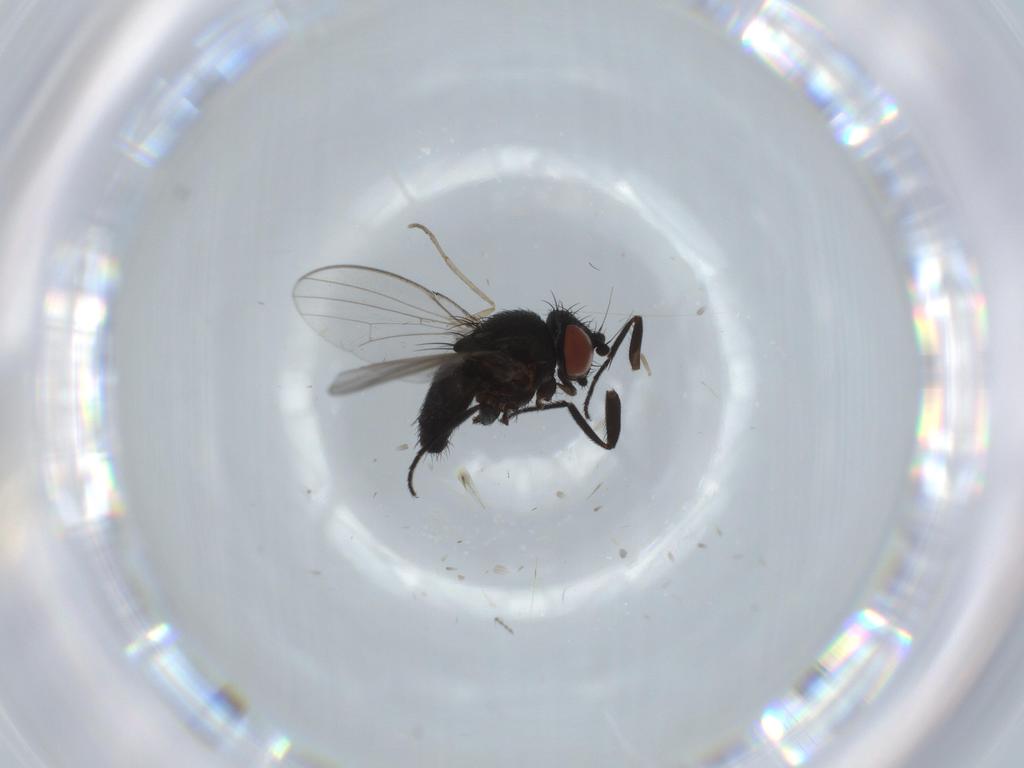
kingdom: Animalia
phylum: Arthropoda
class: Insecta
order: Diptera
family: Milichiidae
